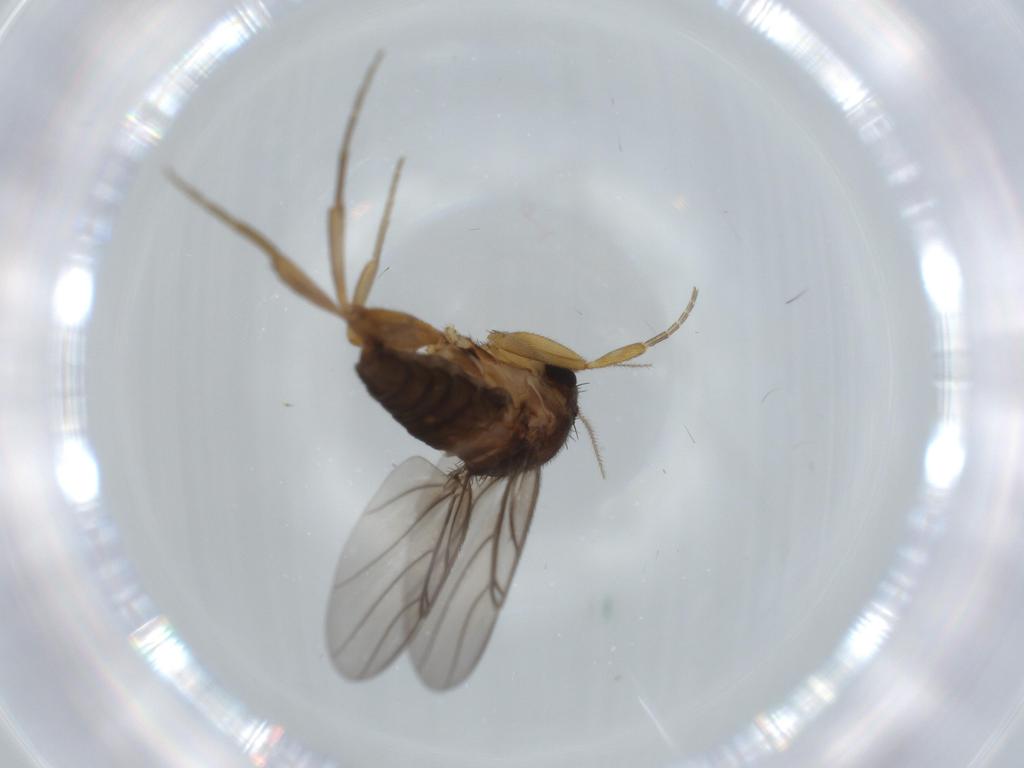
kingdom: Animalia
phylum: Arthropoda
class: Insecta
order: Diptera
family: Phoridae
